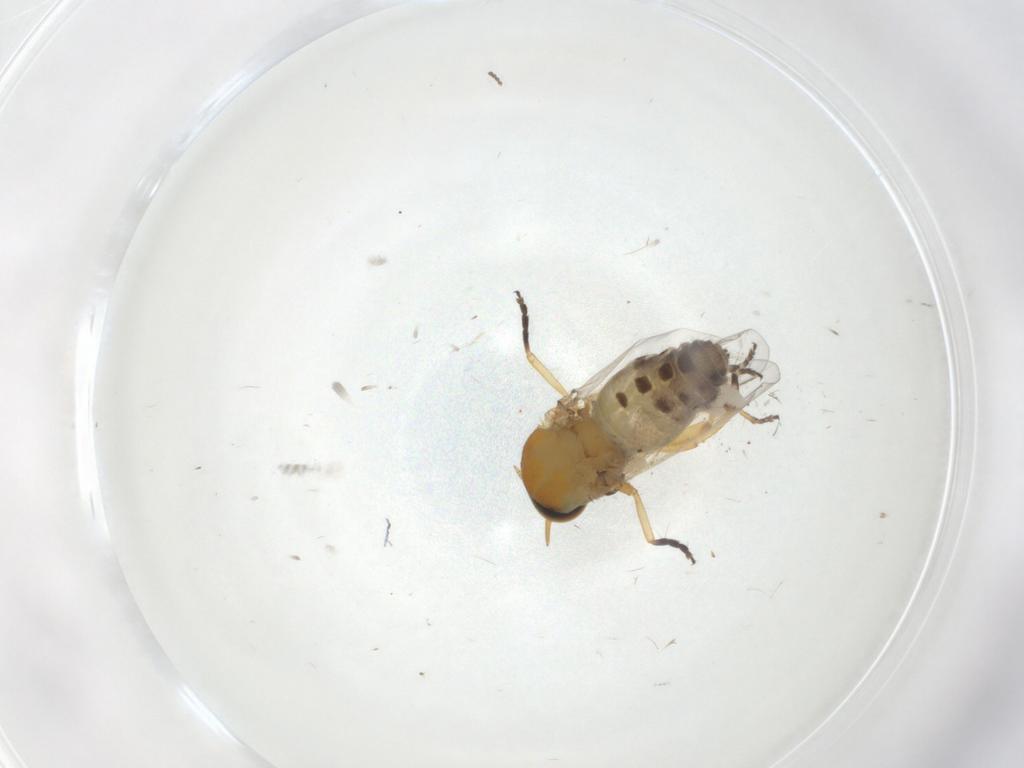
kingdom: Animalia
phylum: Arthropoda
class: Insecta
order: Diptera
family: Simuliidae
